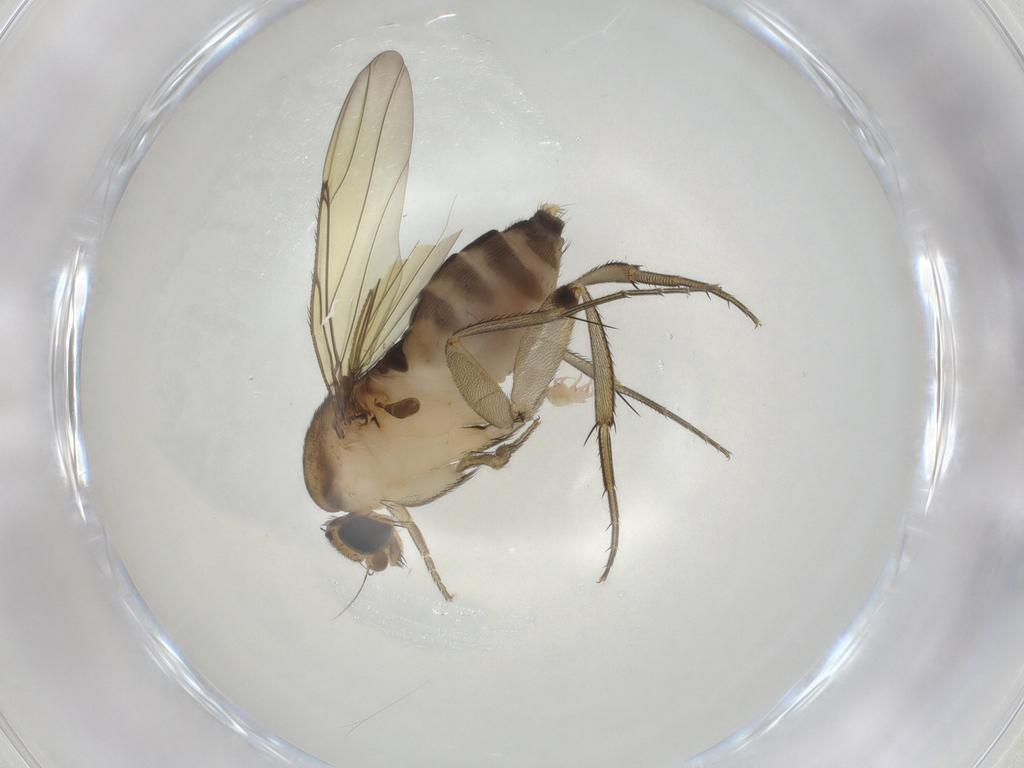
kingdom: Animalia
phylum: Arthropoda
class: Insecta
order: Diptera
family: Phoridae
